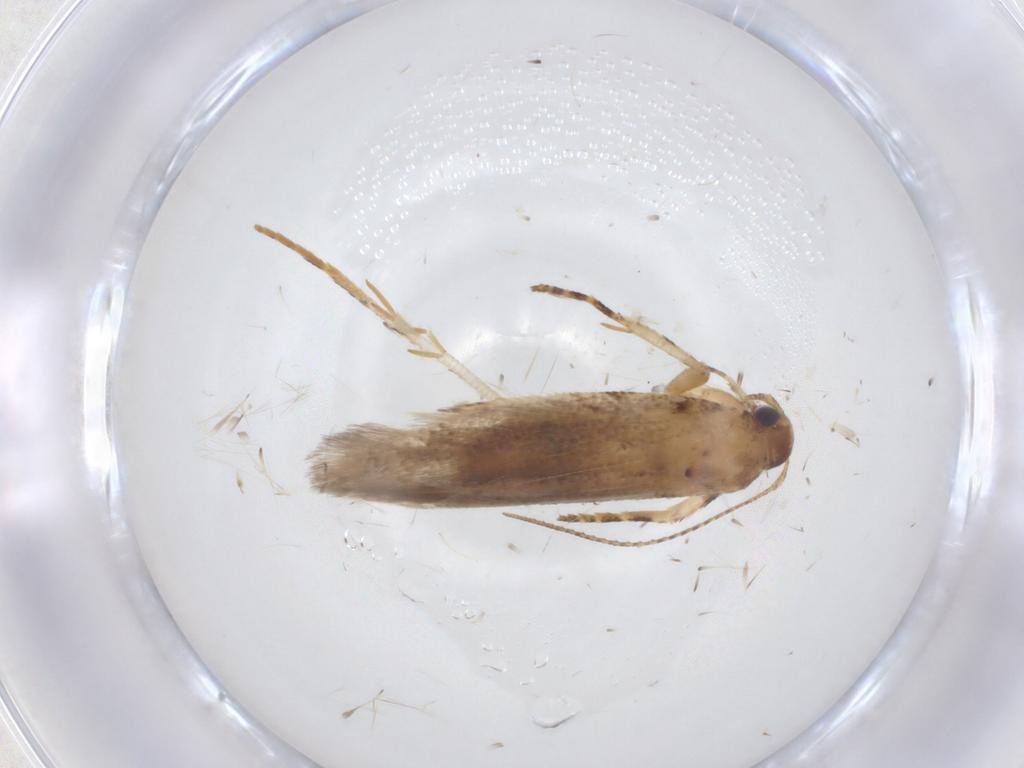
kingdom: Animalia
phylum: Arthropoda
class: Insecta
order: Lepidoptera
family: Gelechiidae
